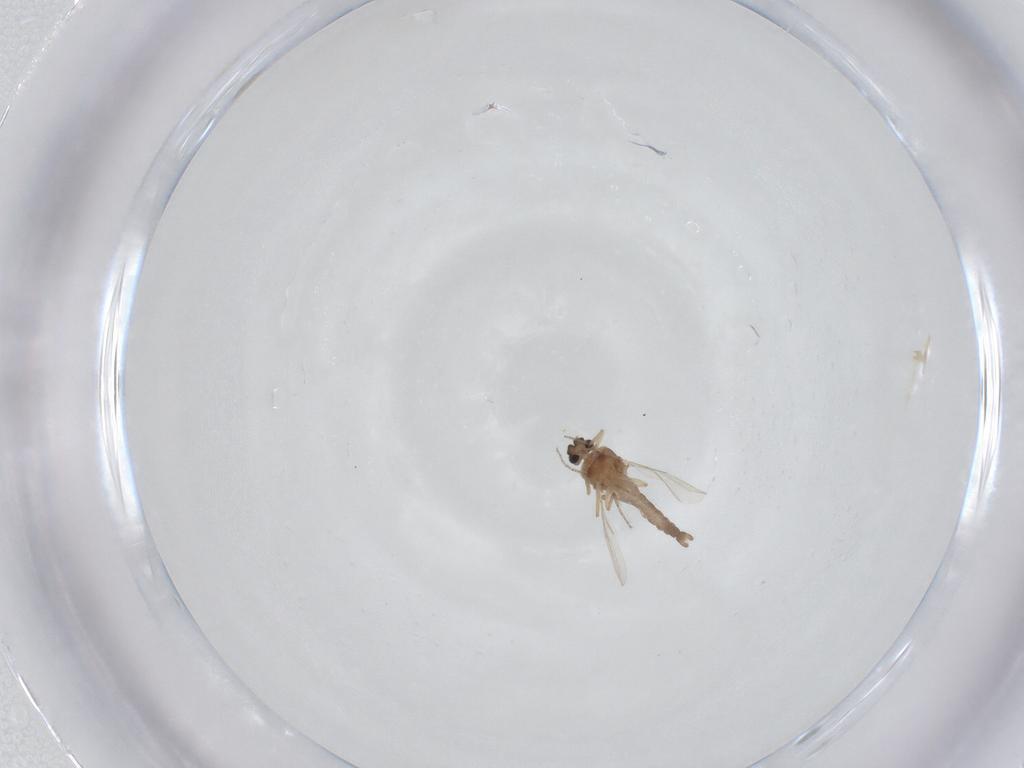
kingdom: Animalia
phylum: Arthropoda
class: Insecta
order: Diptera
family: Ceratopogonidae
